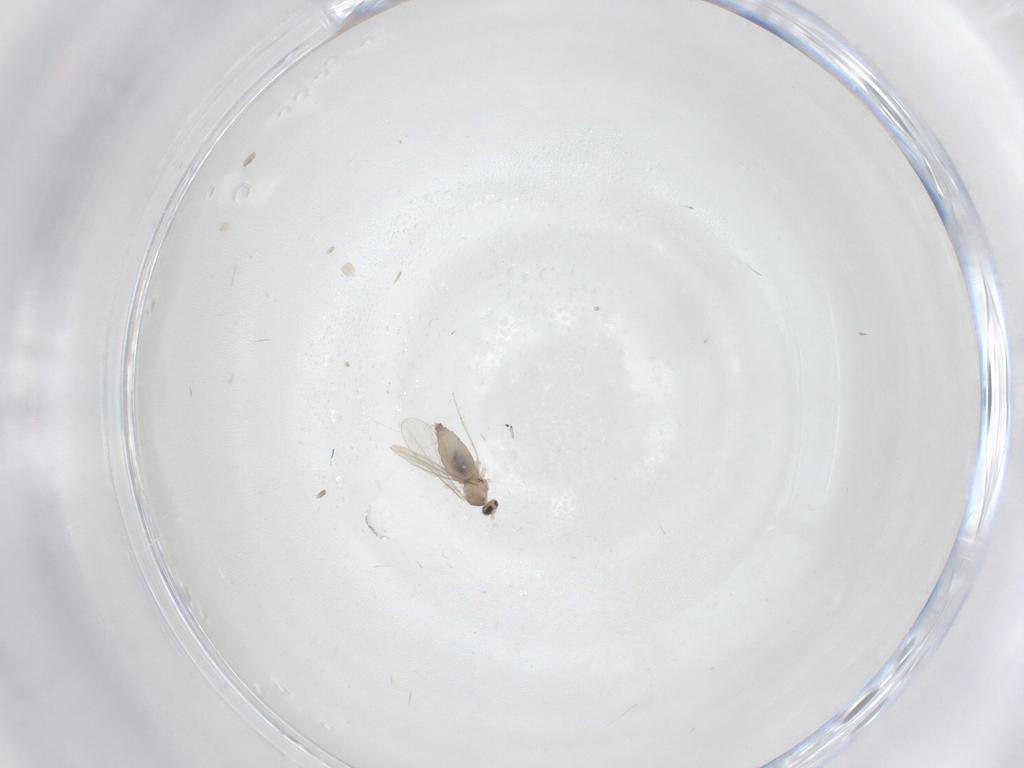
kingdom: Animalia
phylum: Arthropoda
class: Insecta
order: Diptera
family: Cecidomyiidae
